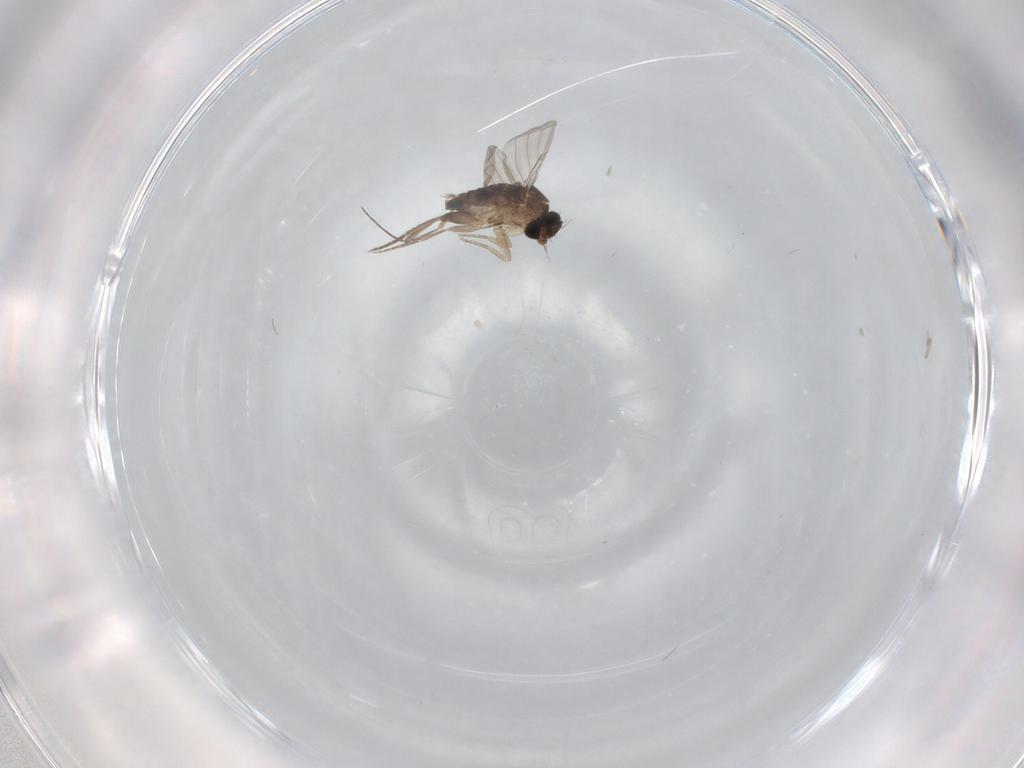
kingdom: Animalia
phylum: Arthropoda
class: Insecta
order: Diptera
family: Phoridae
